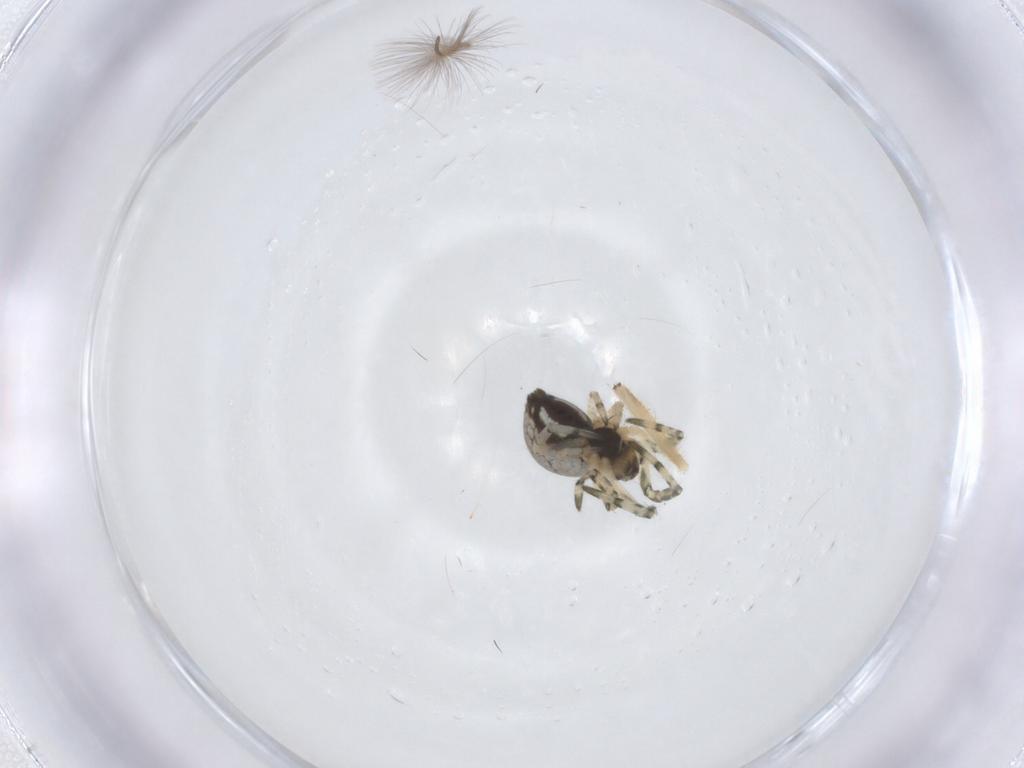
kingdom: Animalia
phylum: Arthropoda
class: Arachnida
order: Araneae
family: Tetragnathidae
